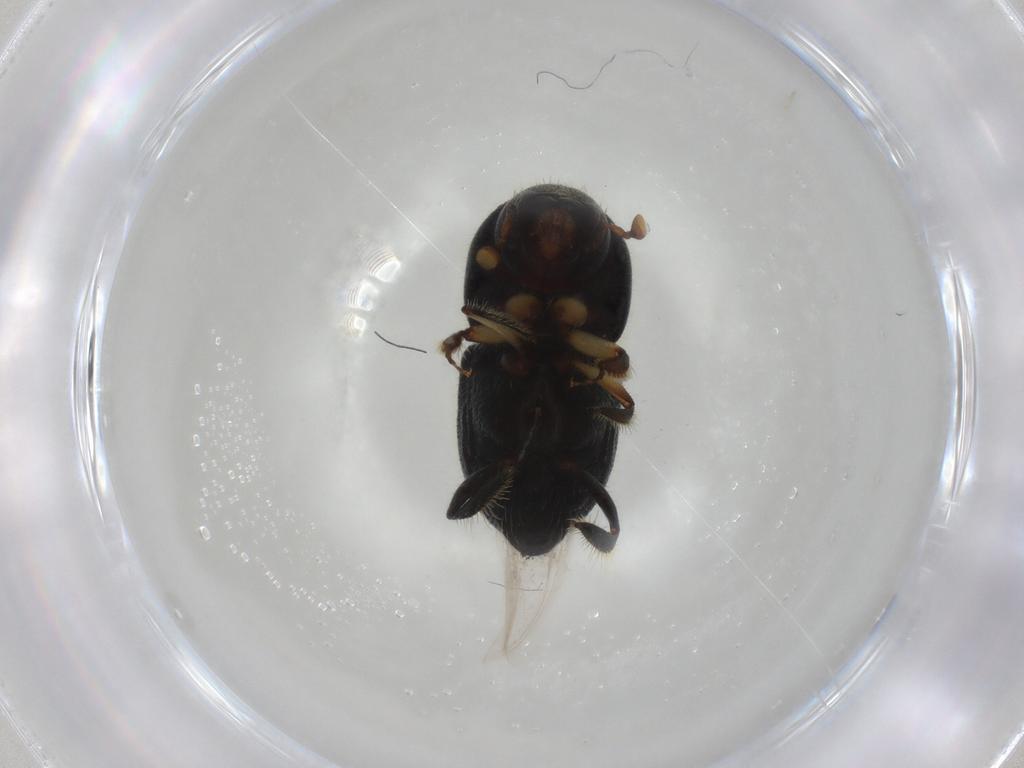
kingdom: Animalia
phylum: Arthropoda
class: Insecta
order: Coleoptera
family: Curculionidae
